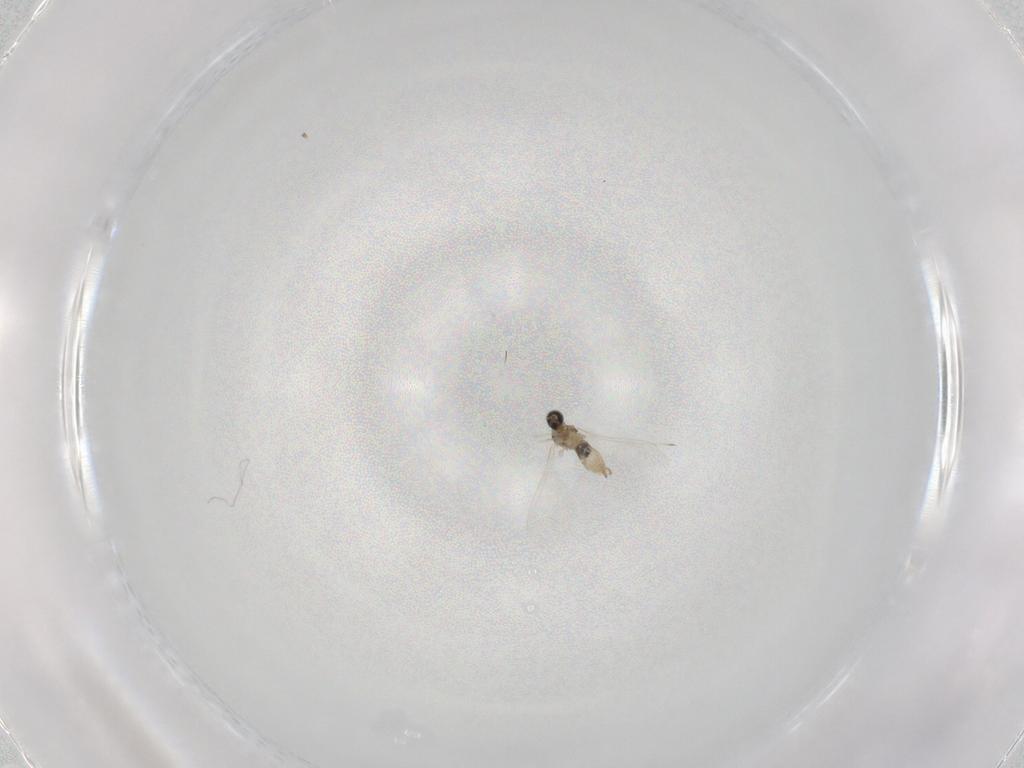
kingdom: Animalia
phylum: Arthropoda
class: Insecta
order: Diptera
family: Cecidomyiidae
